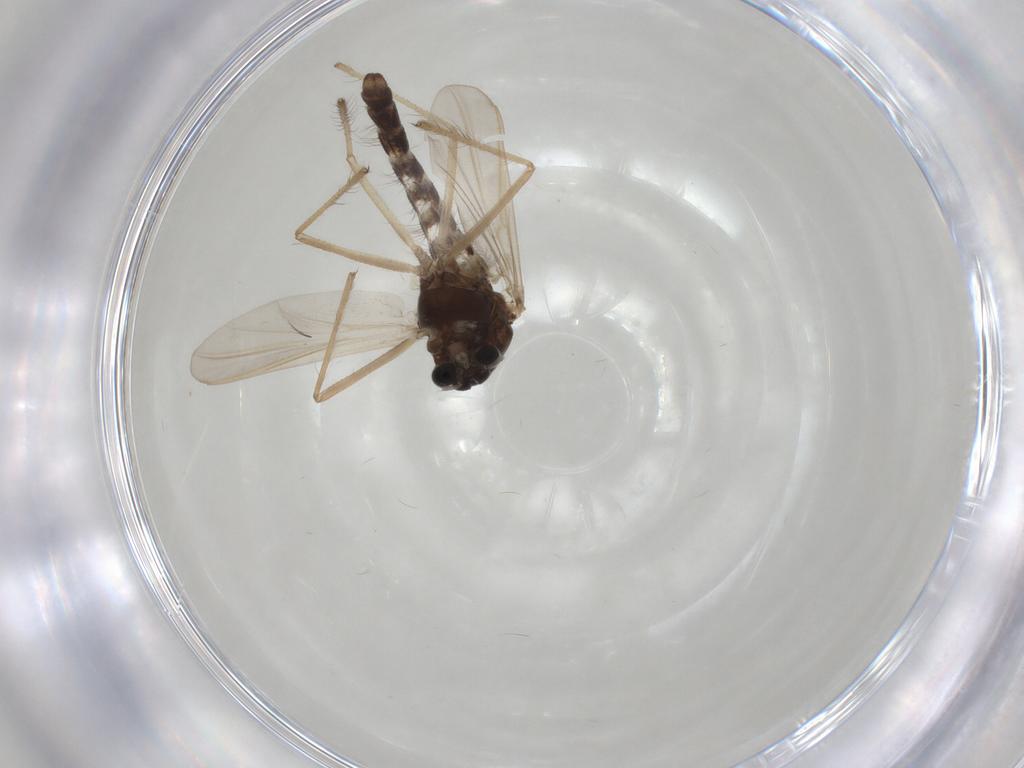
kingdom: Animalia
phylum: Arthropoda
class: Insecta
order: Diptera
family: Chironomidae
